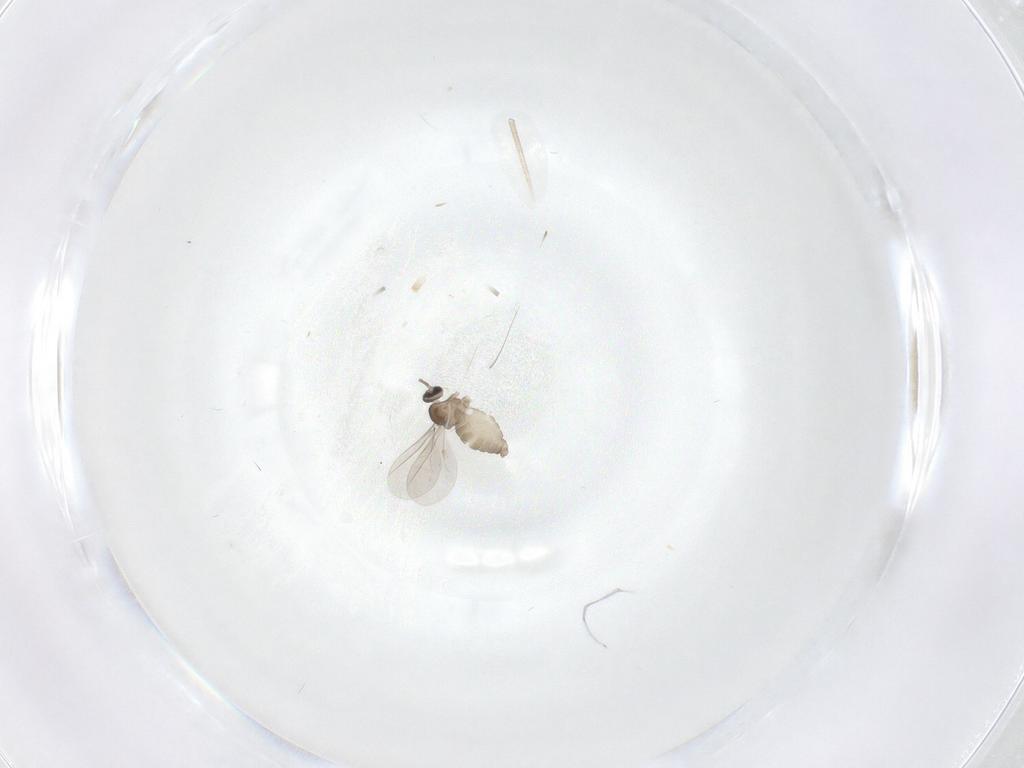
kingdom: Animalia
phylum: Arthropoda
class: Insecta
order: Diptera
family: Cecidomyiidae
